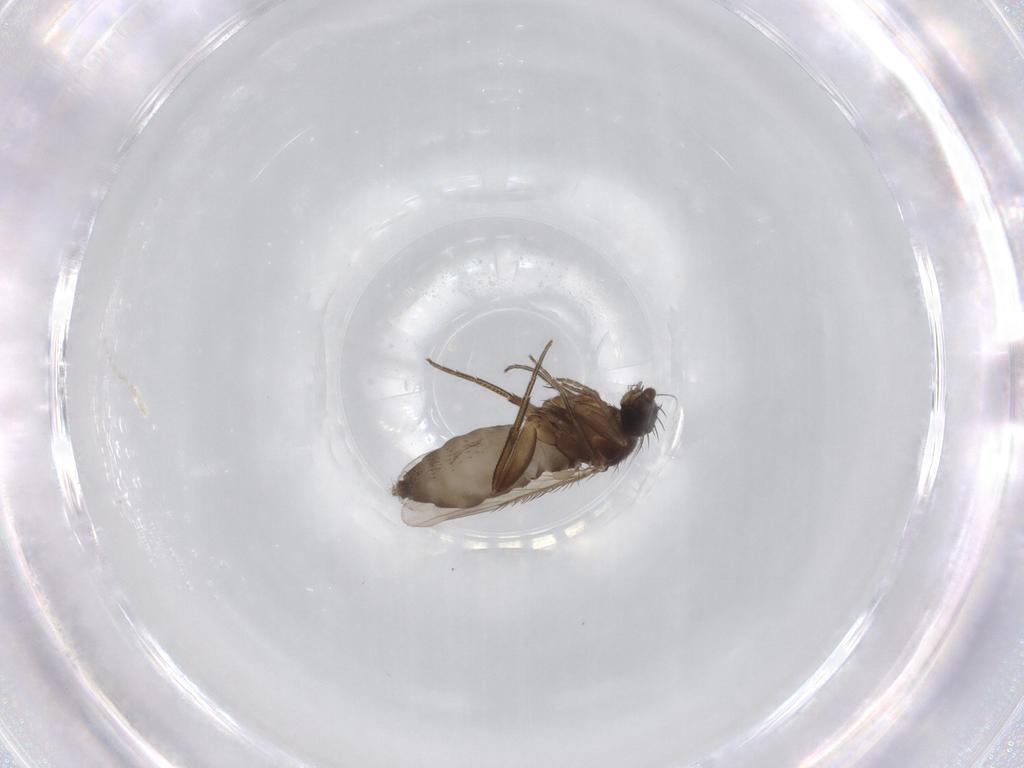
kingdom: Animalia
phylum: Arthropoda
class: Insecta
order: Diptera
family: Phoridae
